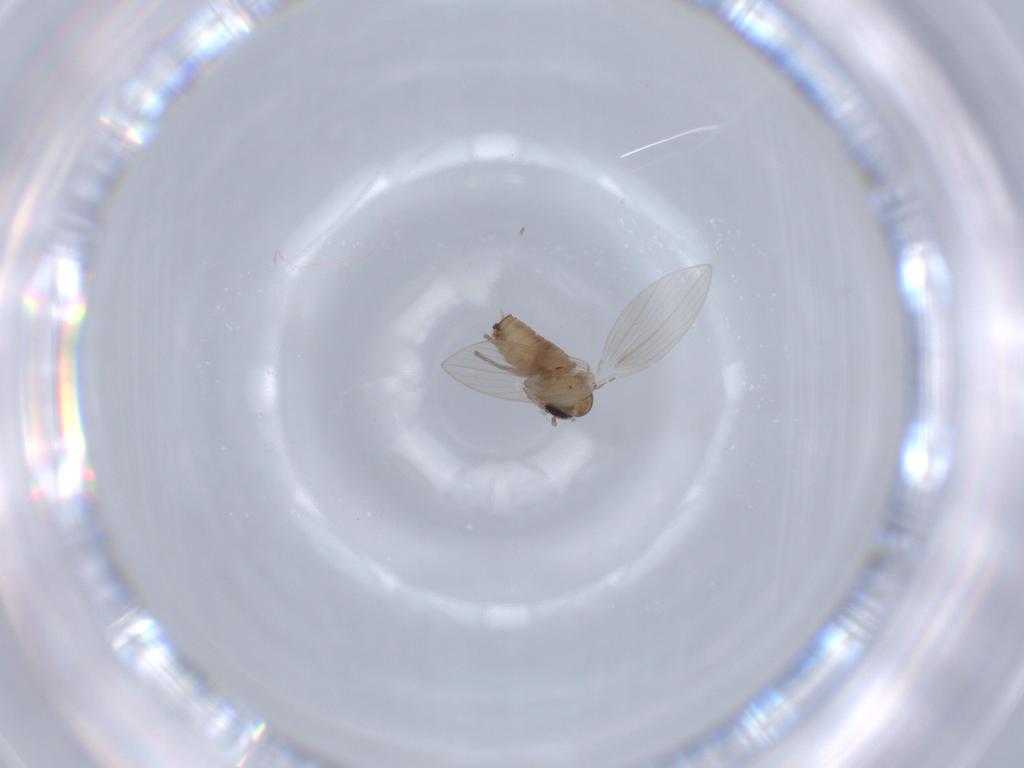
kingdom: Animalia
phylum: Arthropoda
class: Insecta
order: Diptera
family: Psychodidae
